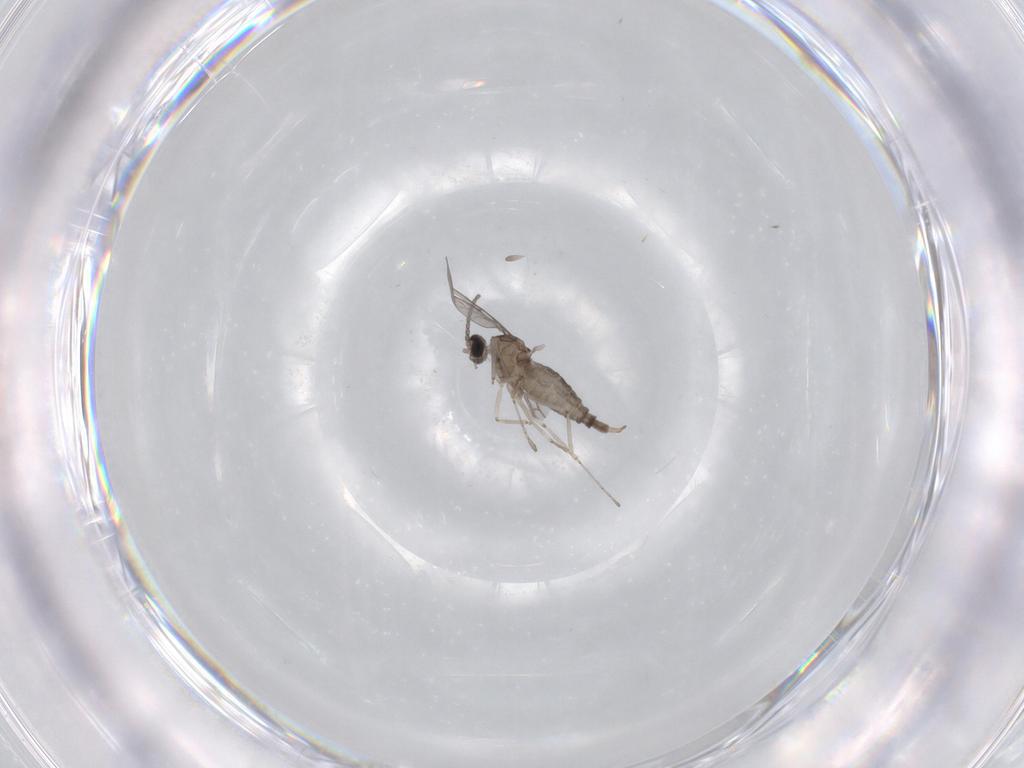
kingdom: Animalia
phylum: Arthropoda
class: Insecta
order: Diptera
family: Cecidomyiidae
